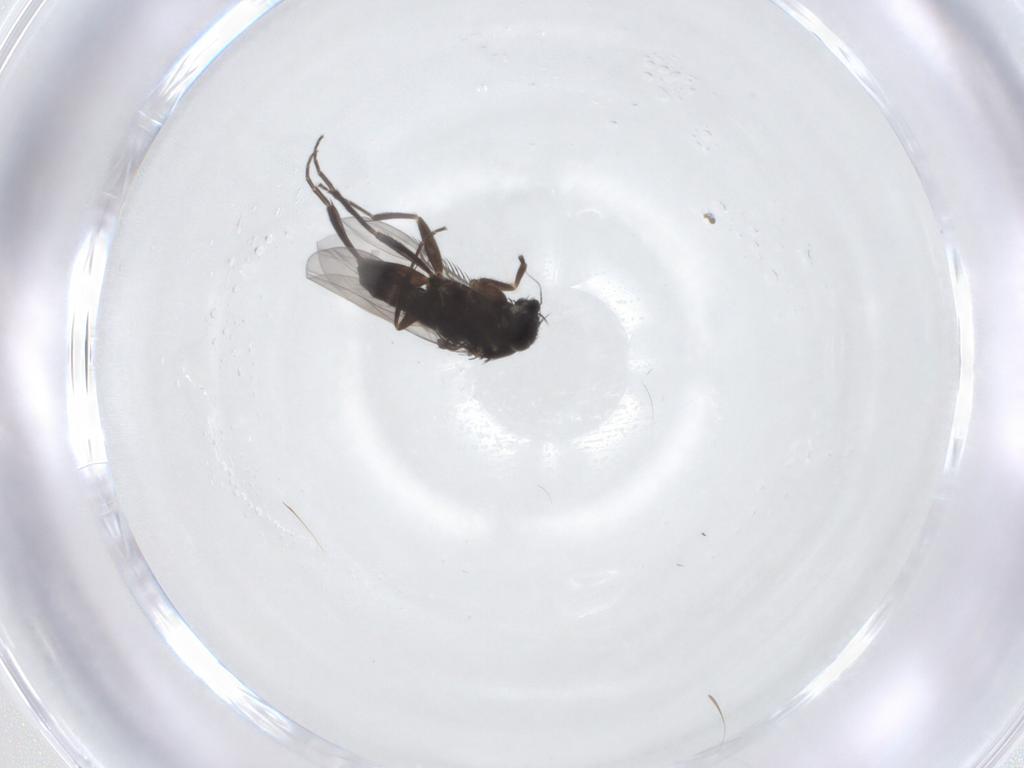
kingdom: Animalia
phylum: Arthropoda
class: Insecta
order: Diptera
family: Phoridae
